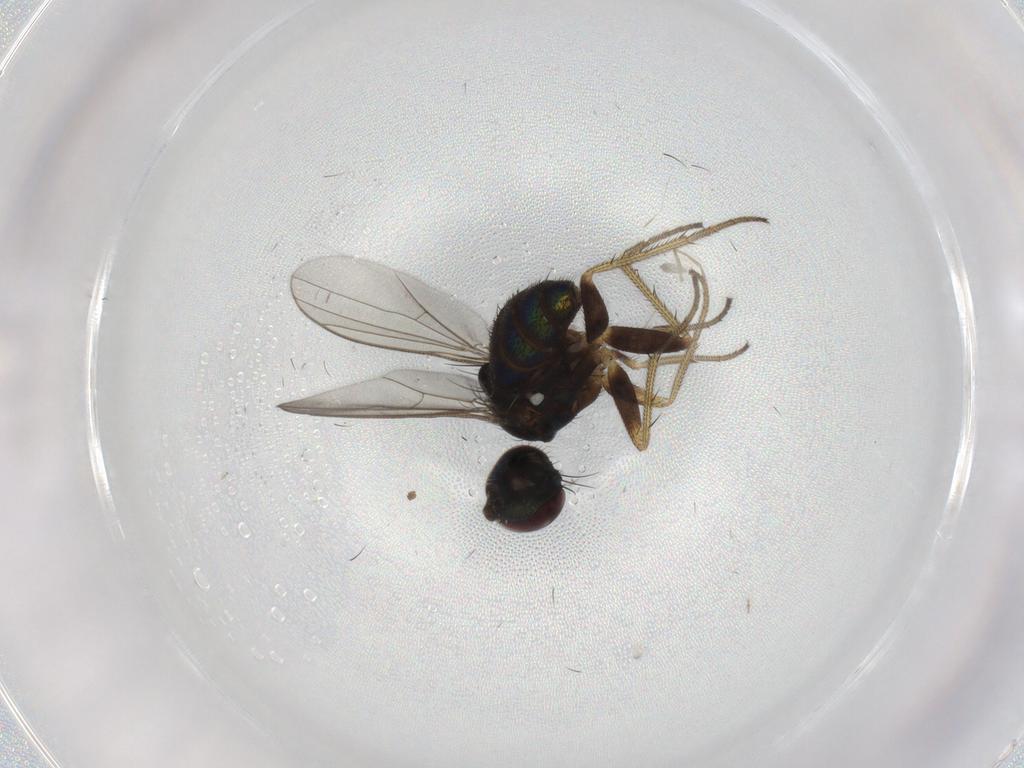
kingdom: Animalia
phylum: Arthropoda
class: Insecta
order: Diptera
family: Dolichopodidae
